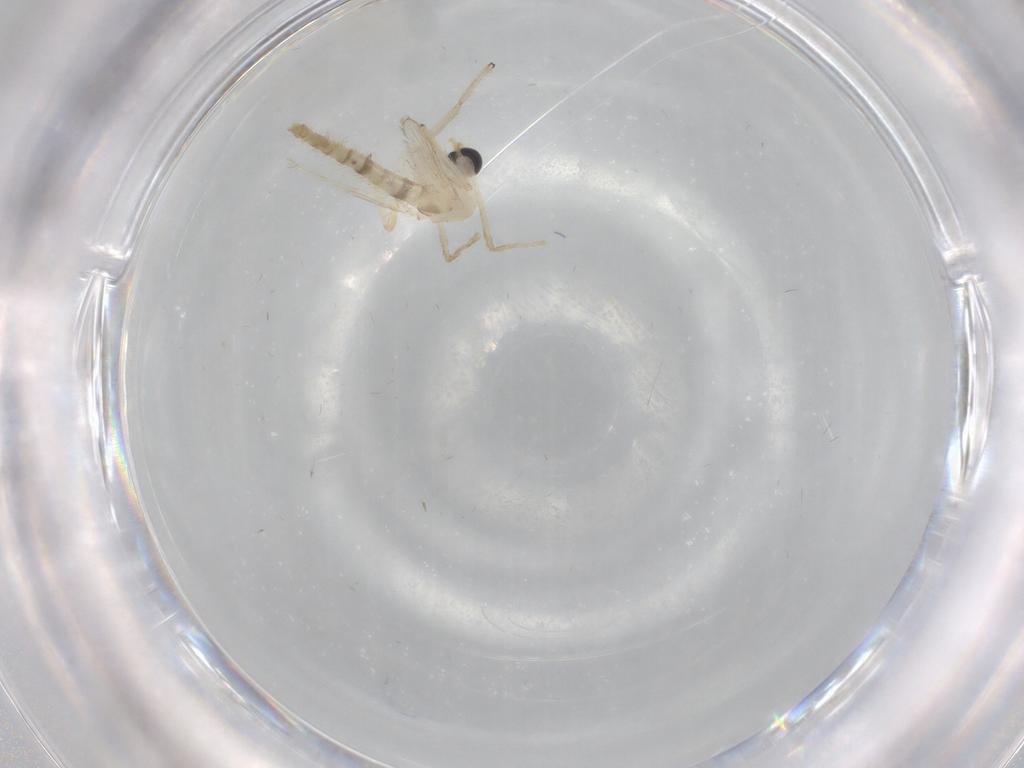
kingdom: Animalia
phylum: Arthropoda
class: Insecta
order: Diptera
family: Chironomidae
